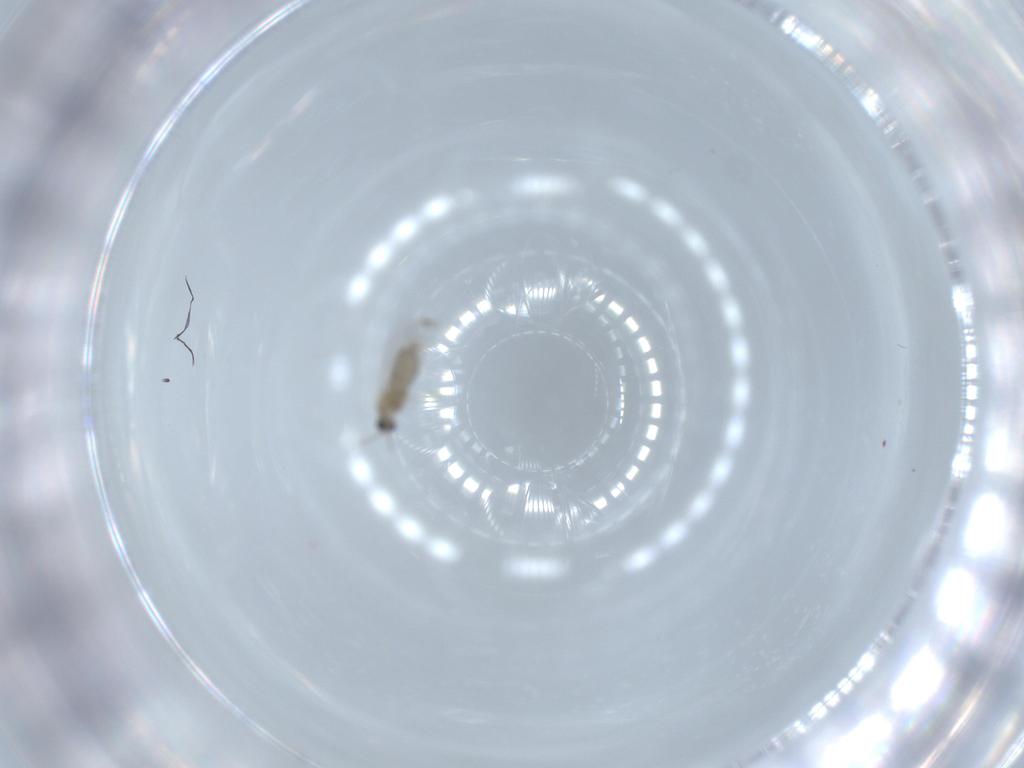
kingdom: Animalia
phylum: Arthropoda
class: Insecta
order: Diptera
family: Cecidomyiidae
